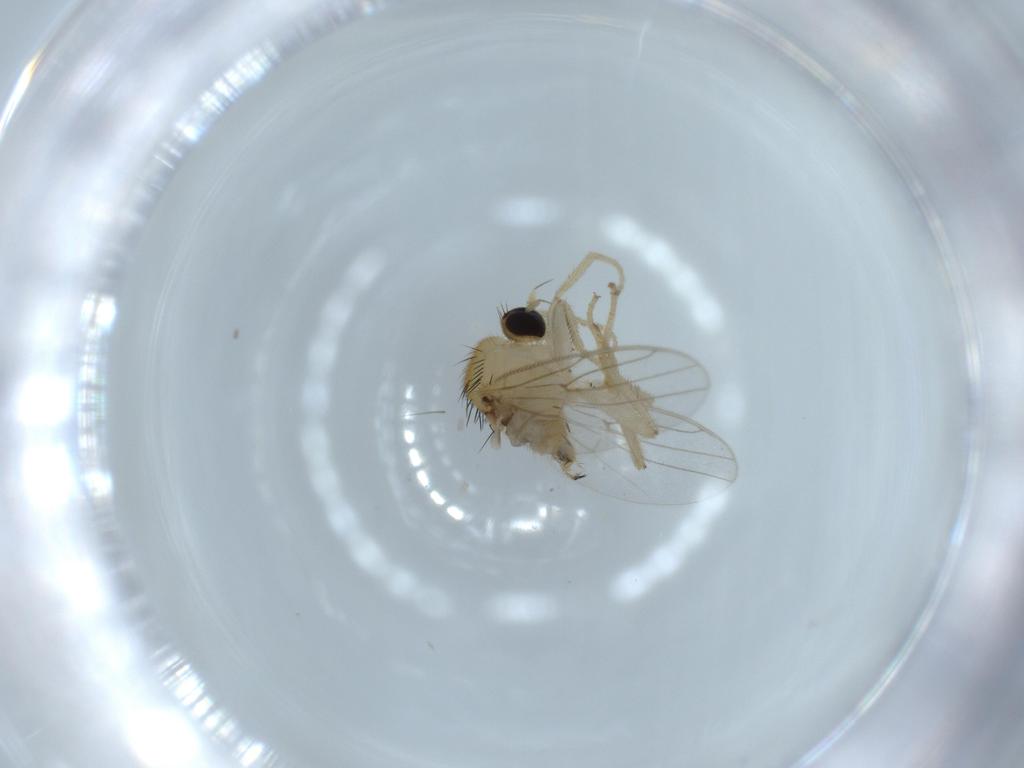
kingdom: Animalia
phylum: Arthropoda
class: Insecta
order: Diptera
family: Hybotidae
